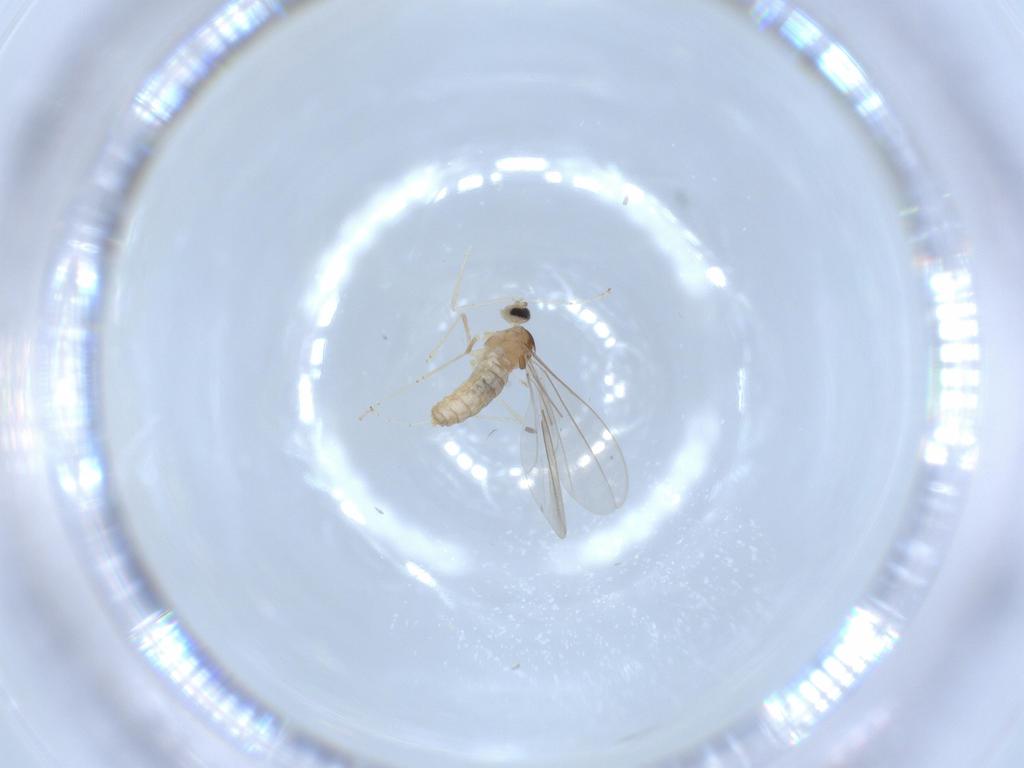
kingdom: Animalia
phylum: Arthropoda
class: Insecta
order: Diptera
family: Cecidomyiidae
